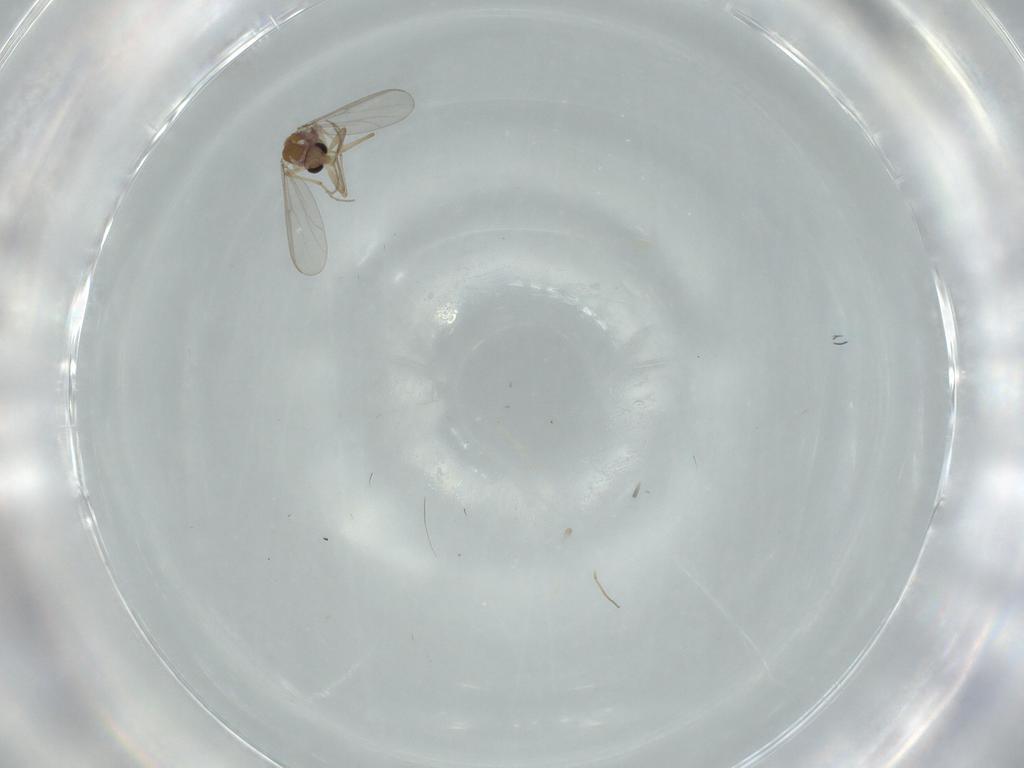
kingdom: Animalia
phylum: Arthropoda
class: Insecta
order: Diptera
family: Chironomidae
